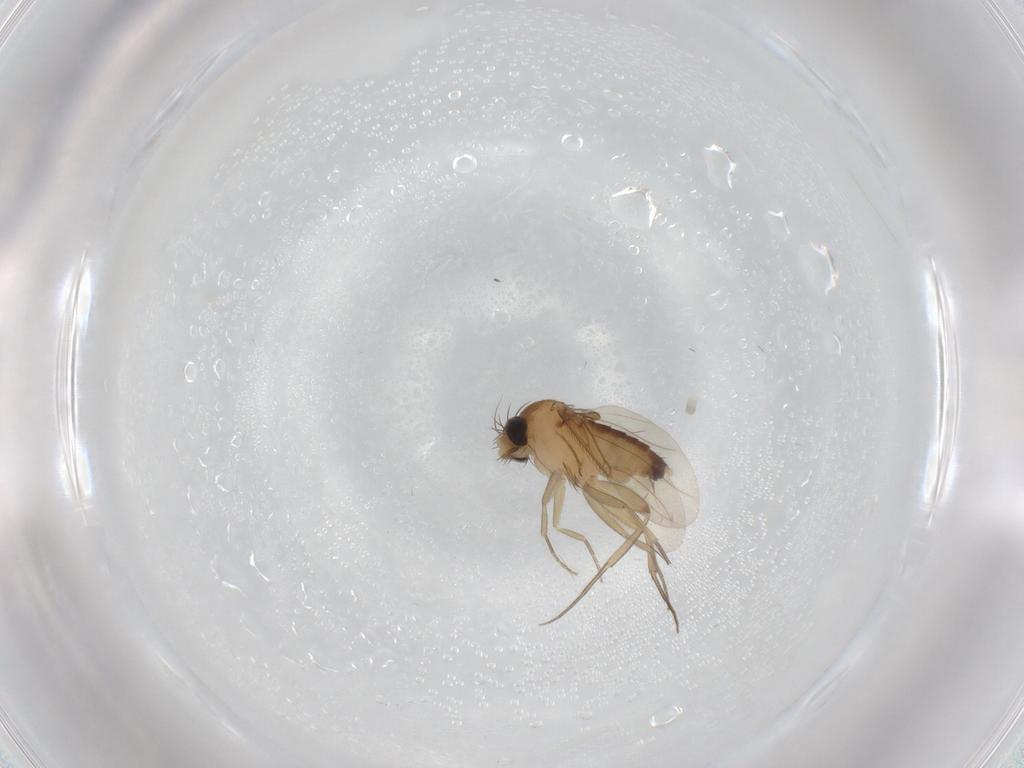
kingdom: Animalia
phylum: Arthropoda
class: Insecta
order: Diptera
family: Phoridae
